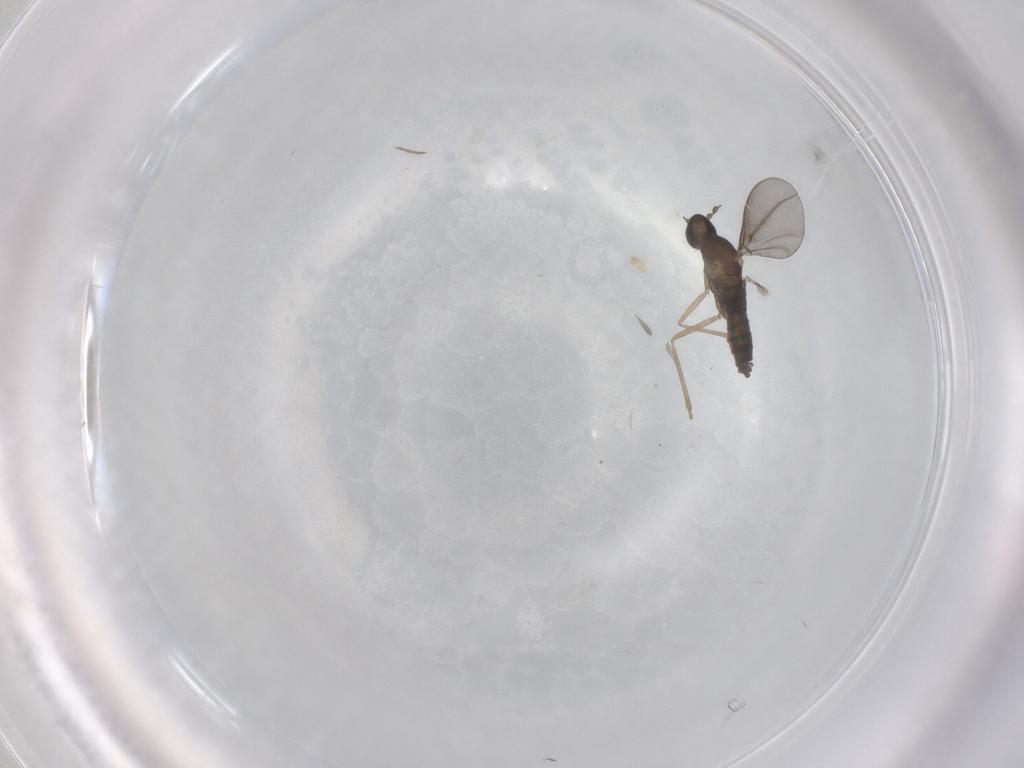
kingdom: Animalia
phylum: Arthropoda
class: Insecta
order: Diptera
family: Cecidomyiidae
